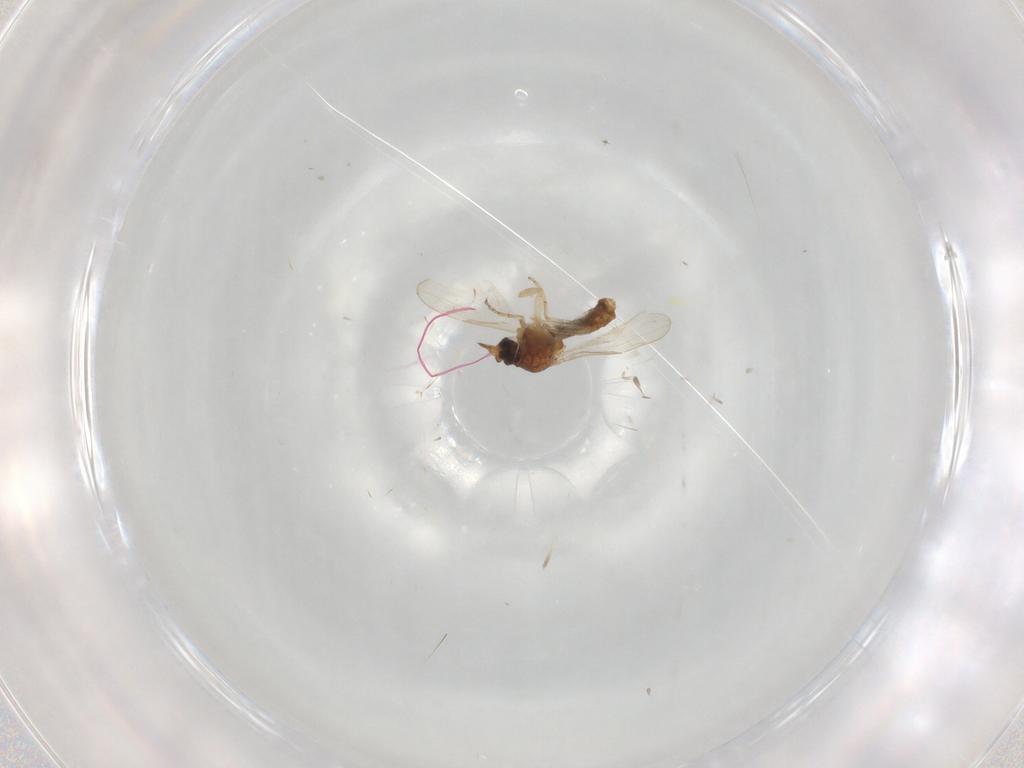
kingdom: Animalia
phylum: Arthropoda
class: Insecta
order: Diptera
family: Ceratopogonidae
